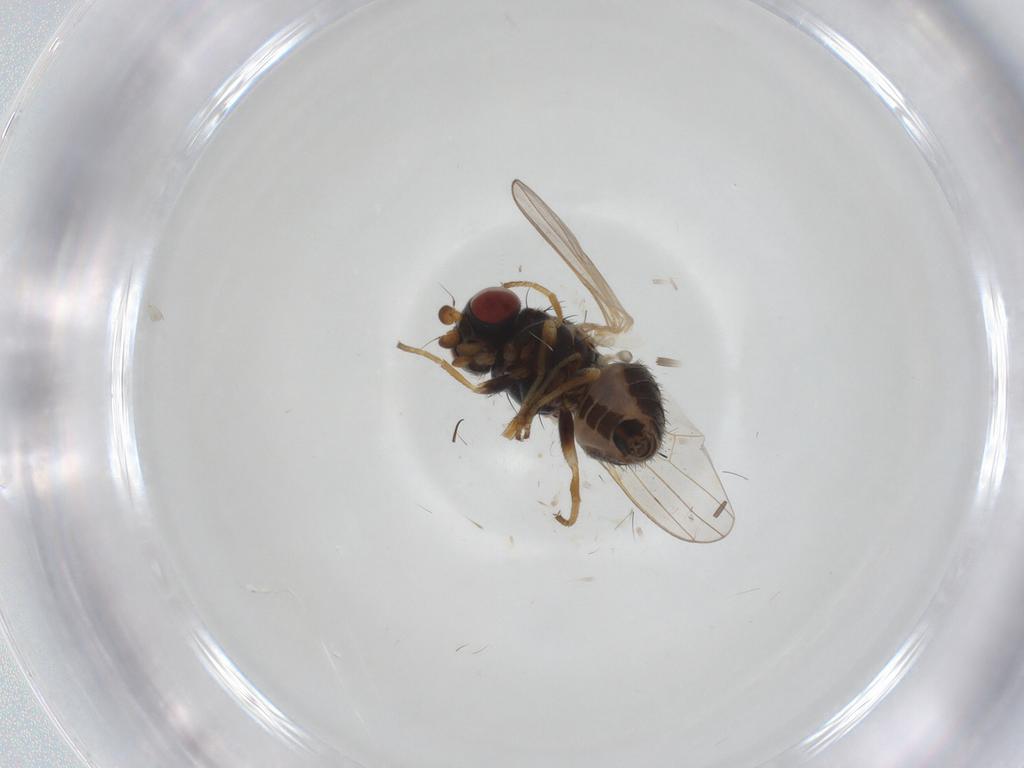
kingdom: Animalia
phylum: Arthropoda
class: Insecta
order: Diptera
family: Chamaemyiidae
